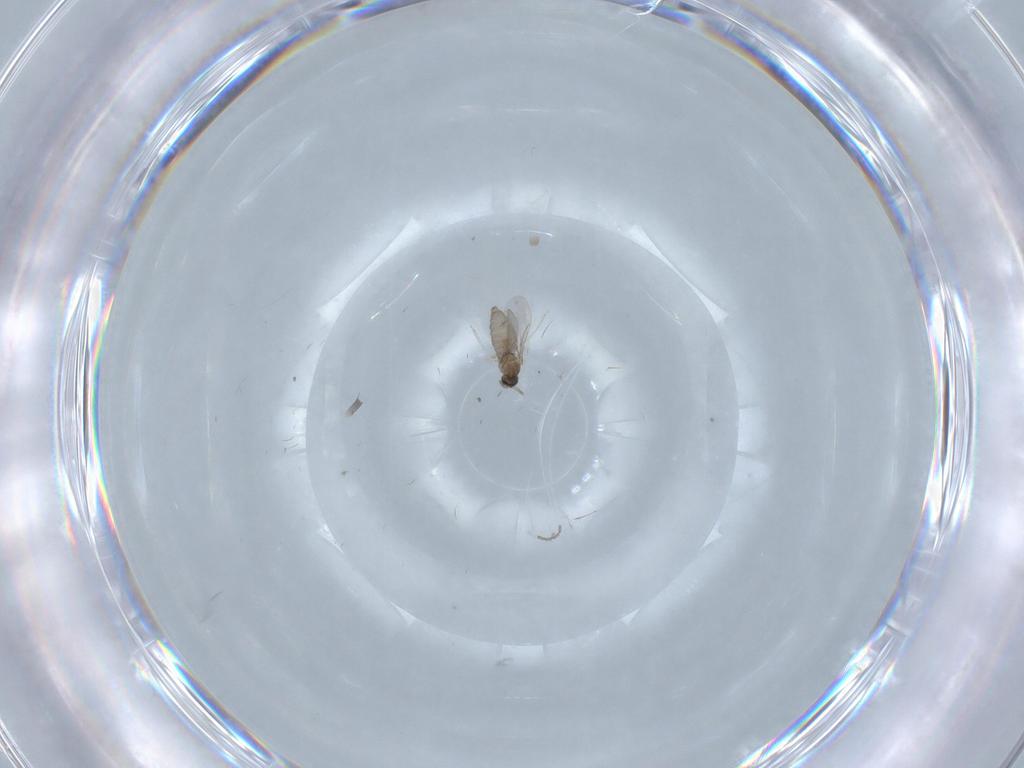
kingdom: Animalia
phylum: Arthropoda
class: Insecta
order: Diptera
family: Cecidomyiidae
